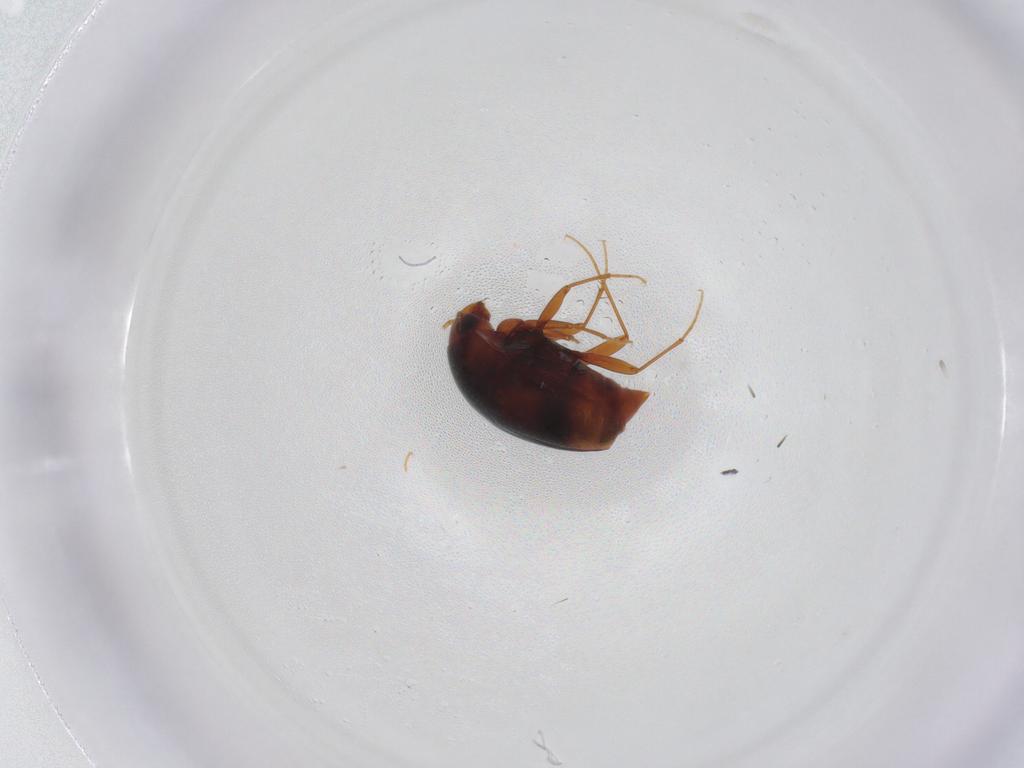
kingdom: Animalia
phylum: Arthropoda
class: Insecta
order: Coleoptera
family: Staphylinidae
